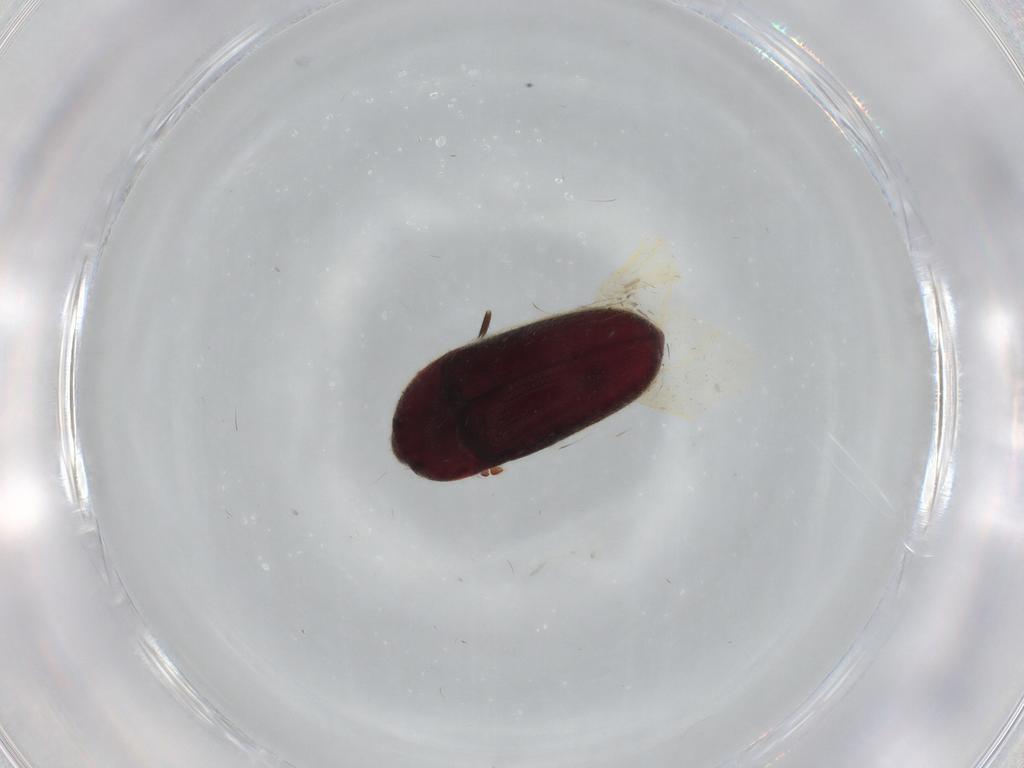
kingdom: Animalia
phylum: Arthropoda
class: Insecta
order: Coleoptera
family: Throscidae
